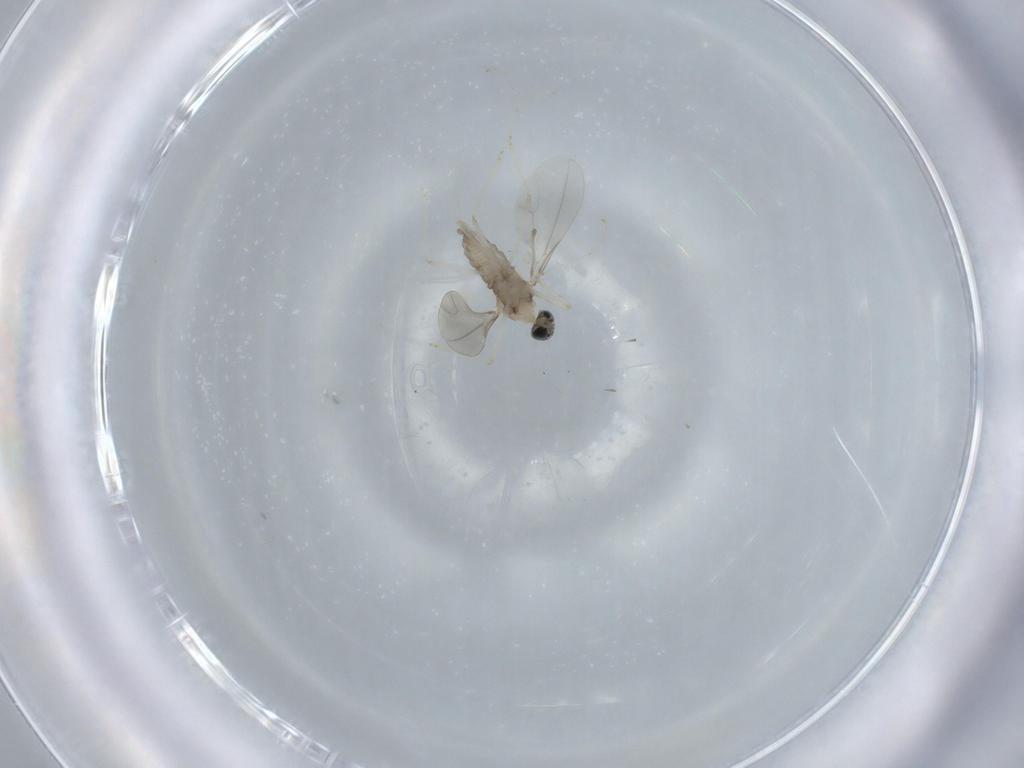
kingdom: Animalia
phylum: Arthropoda
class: Insecta
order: Diptera
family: Cecidomyiidae
